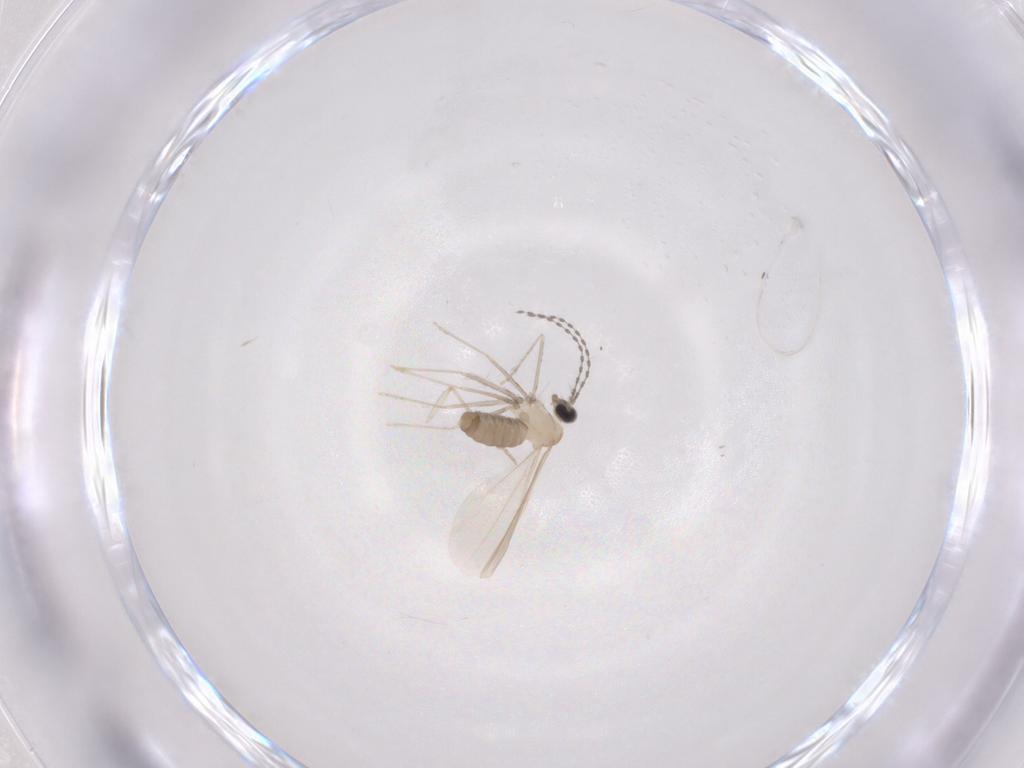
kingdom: Animalia
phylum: Arthropoda
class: Insecta
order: Diptera
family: Cecidomyiidae
